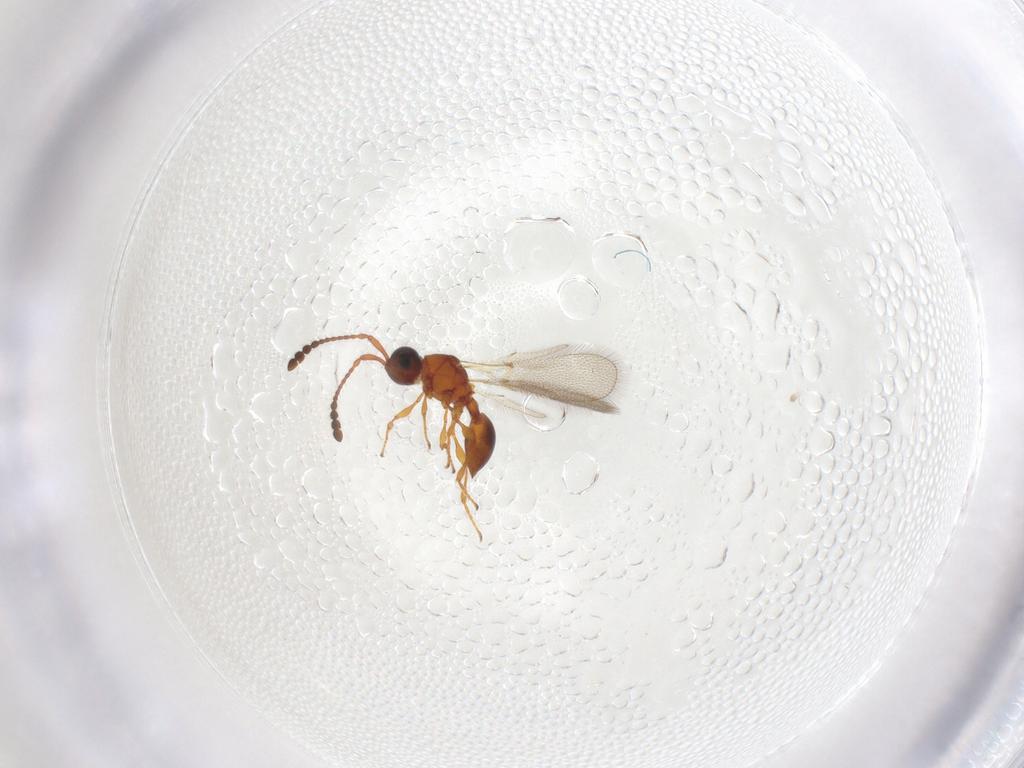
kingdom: Animalia
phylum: Arthropoda
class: Insecta
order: Hymenoptera
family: Diapriidae
